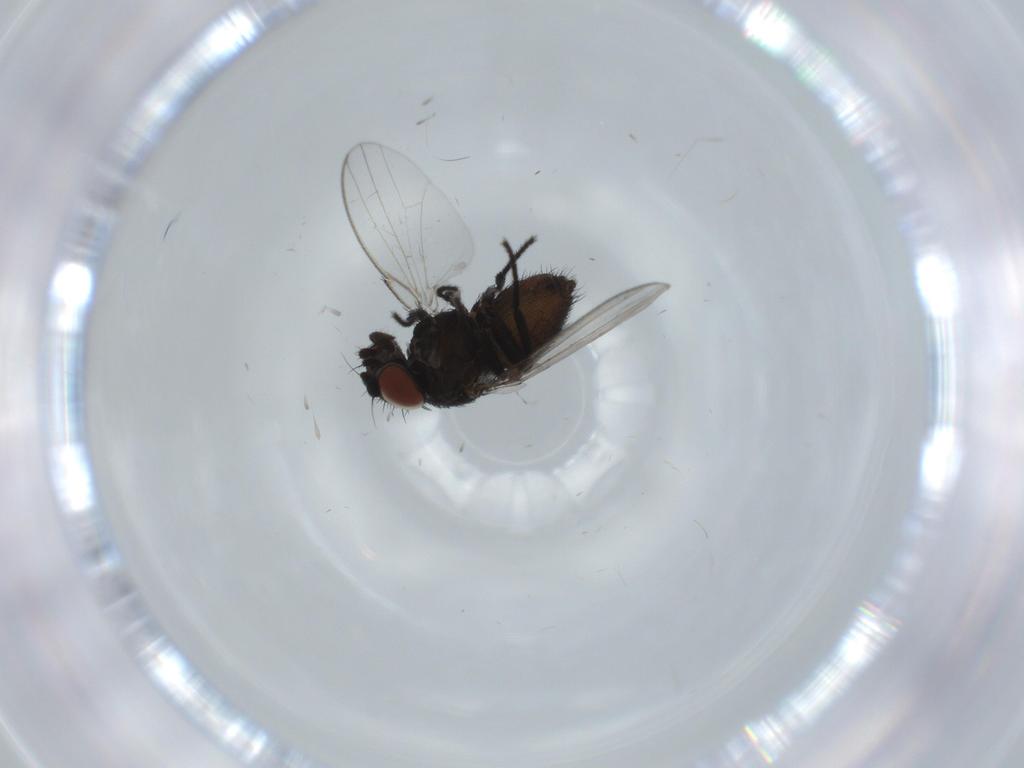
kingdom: Animalia
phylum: Arthropoda
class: Insecta
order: Diptera
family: Milichiidae
